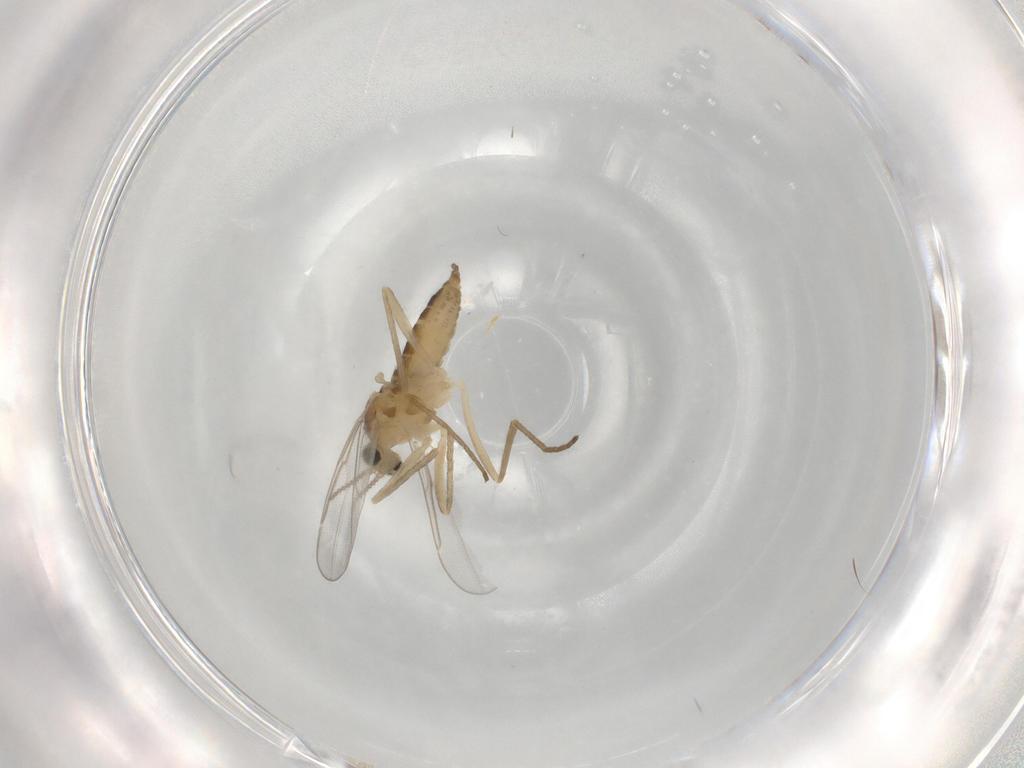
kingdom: Animalia
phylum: Arthropoda
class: Insecta
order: Diptera
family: Cecidomyiidae
